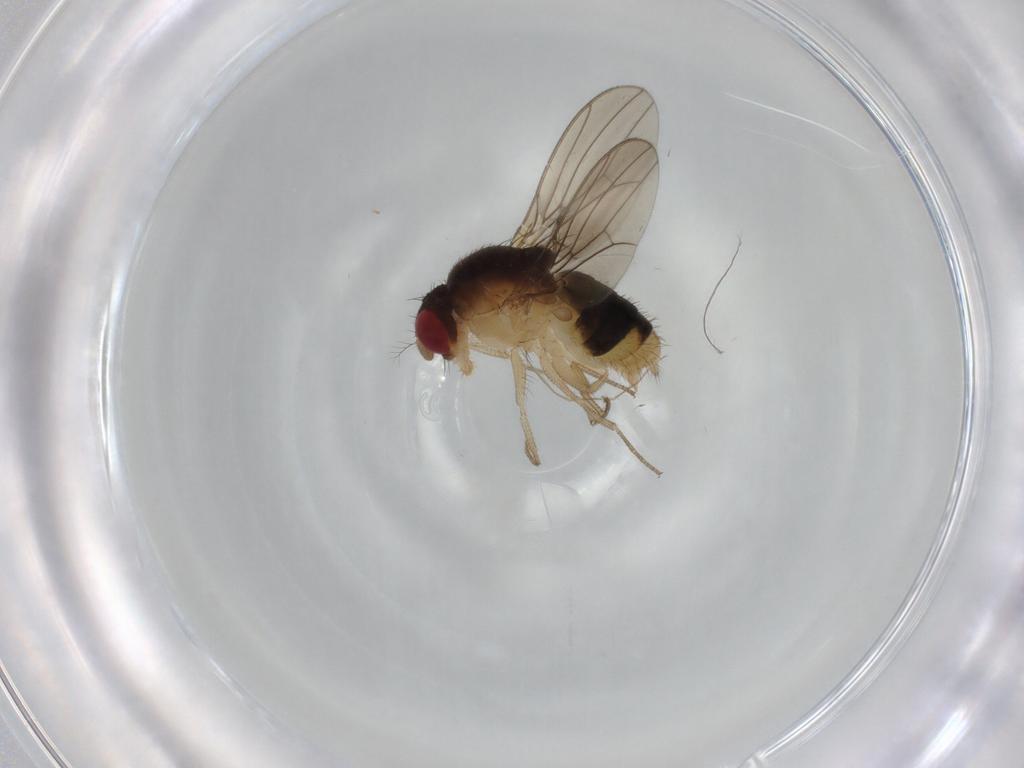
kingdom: Animalia
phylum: Arthropoda
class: Insecta
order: Diptera
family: Drosophilidae
